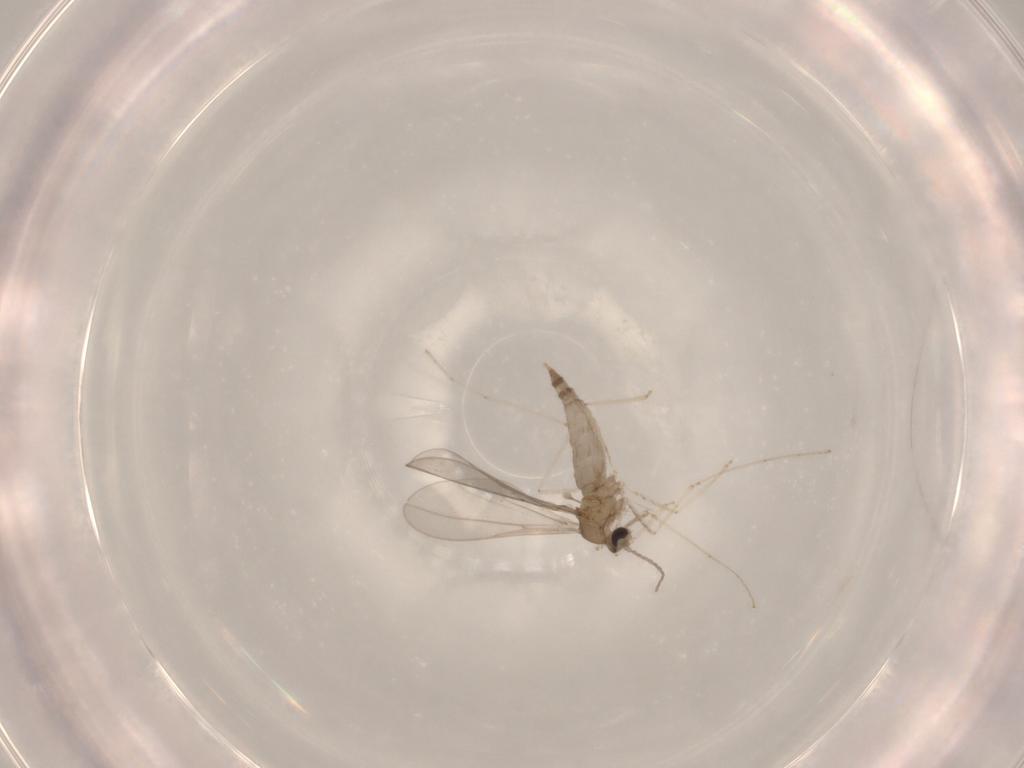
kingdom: Animalia
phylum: Arthropoda
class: Insecta
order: Diptera
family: Cecidomyiidae
